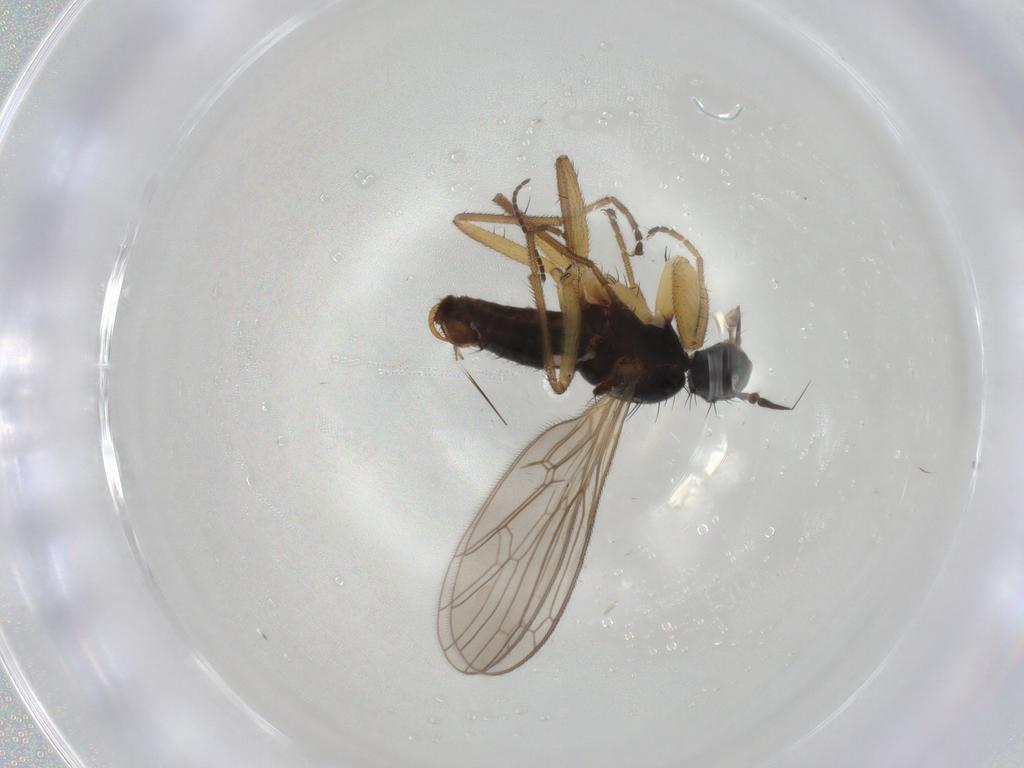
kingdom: Animalia
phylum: Arthropoda
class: Insecta
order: Diptera
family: Sciaridae
